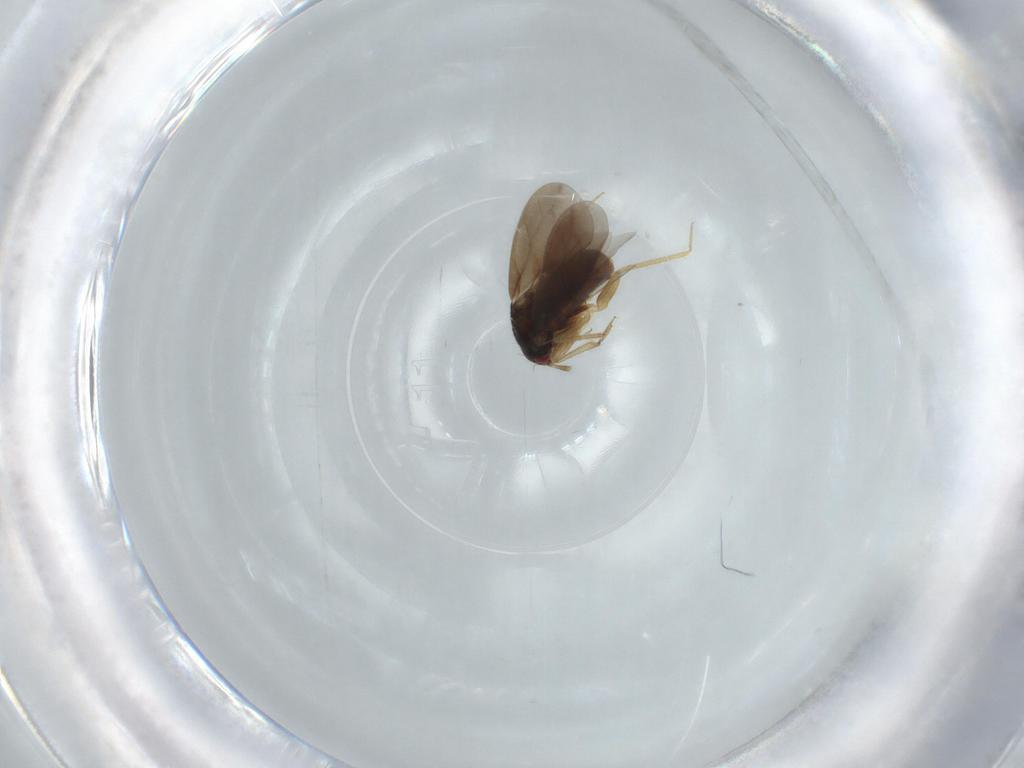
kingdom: Animalia
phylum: Arthropoda
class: Insecta
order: Hemiptera
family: Ceratocombidae
